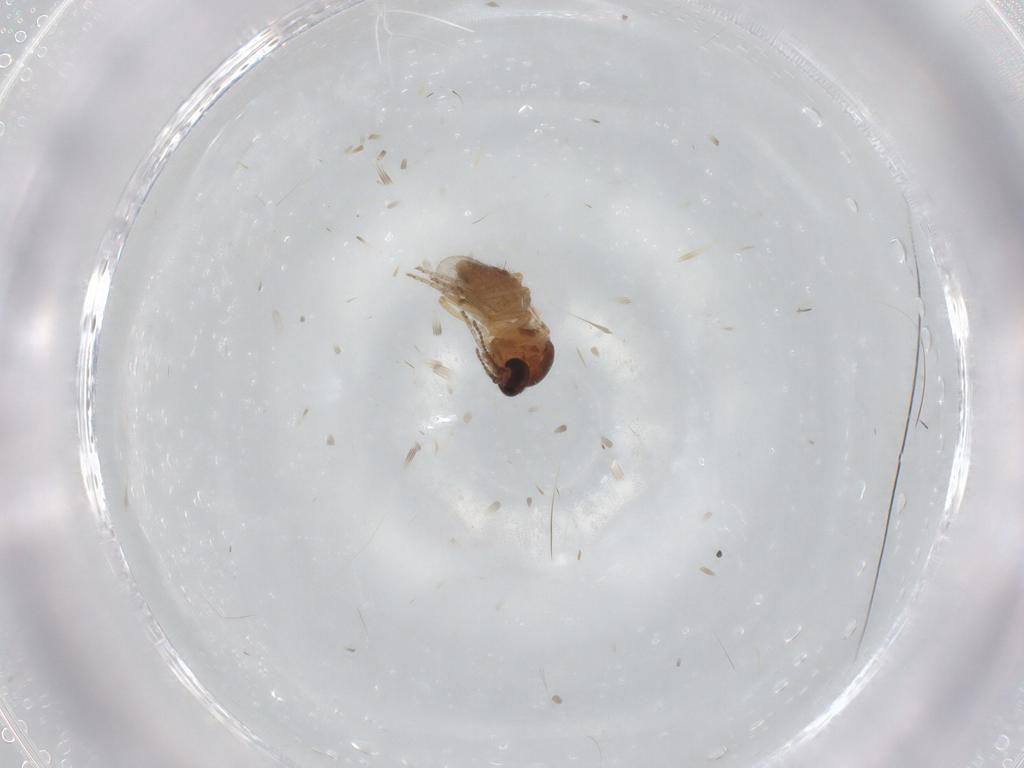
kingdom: Animalia
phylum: Arthropoda
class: Insecta
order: Diptera
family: Ceratopogonidae
